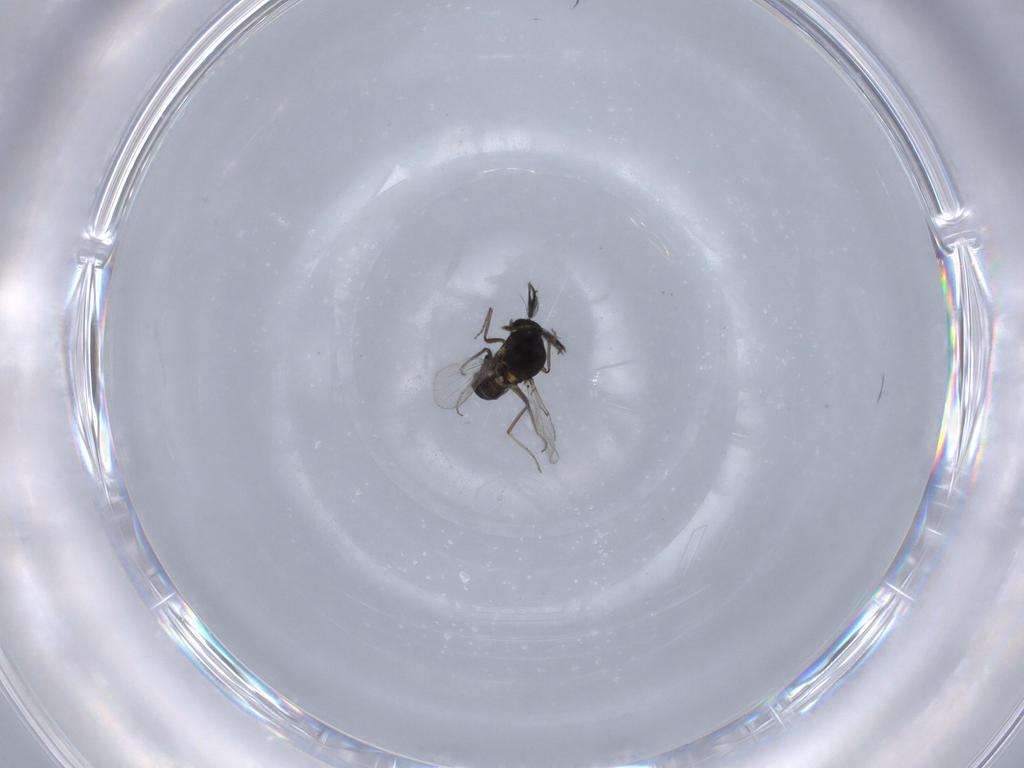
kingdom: Animalia
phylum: Arthropoda
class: Insecta
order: Diptera
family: Ceratopogonidae
